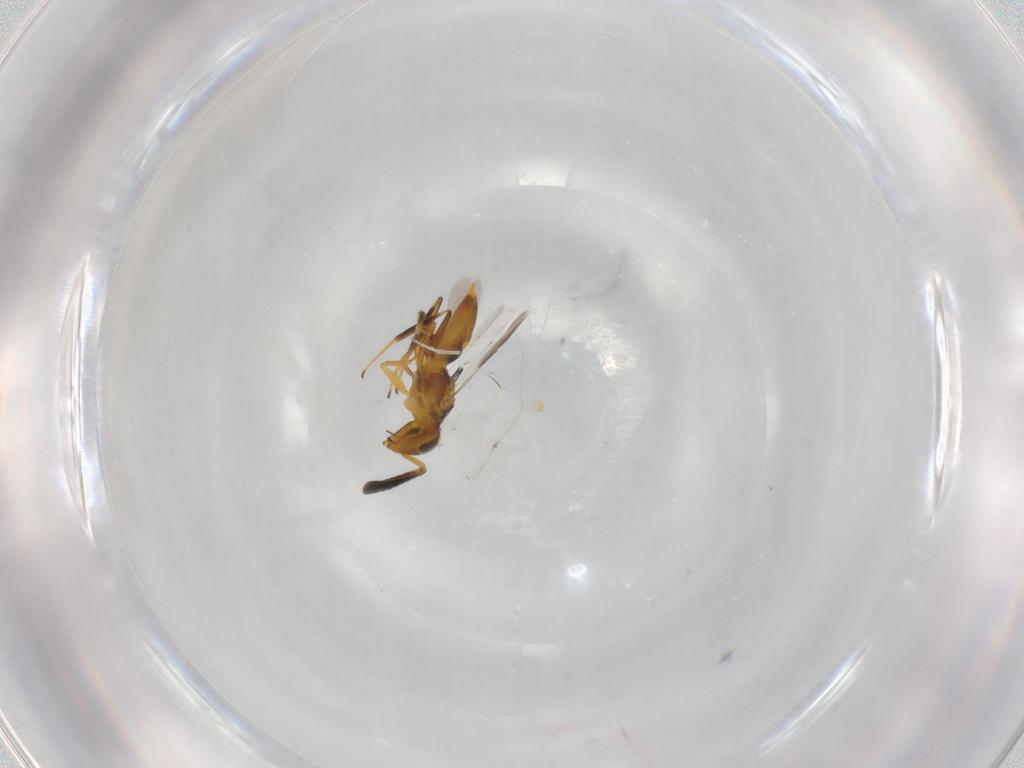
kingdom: Animalia
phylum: Arthropoda
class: Insecta
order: Hymenoptera
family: Encyrtidae
